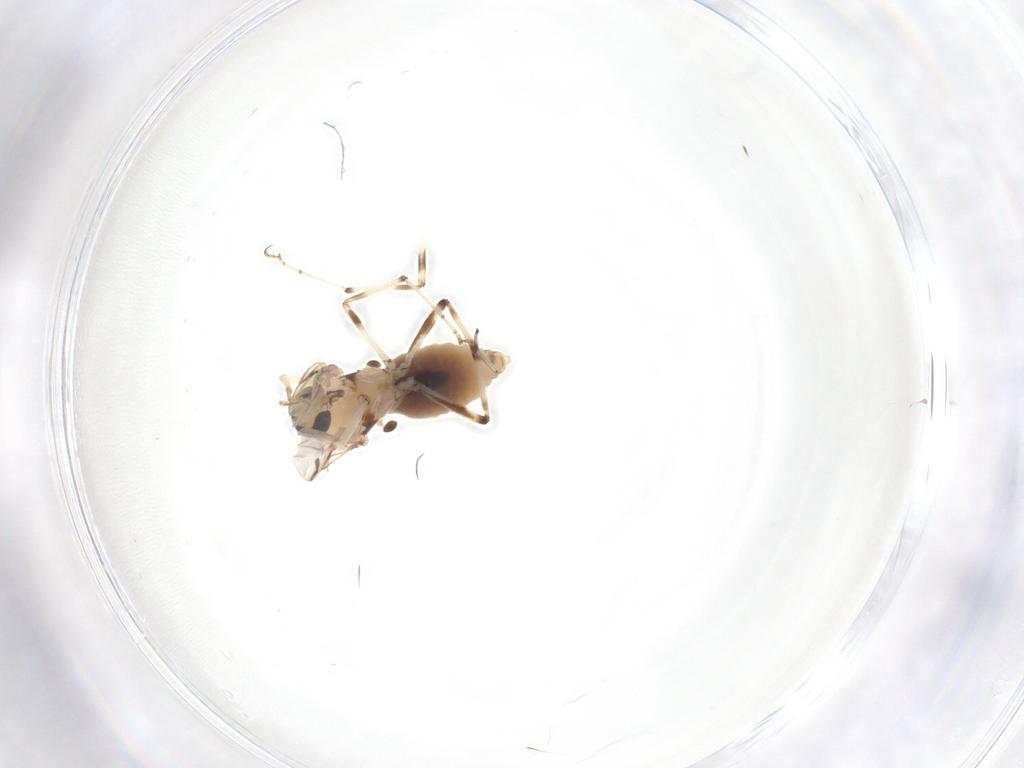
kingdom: Animalia
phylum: Arthropoda
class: Insecta
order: Diptera
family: Ceratopogonidae
